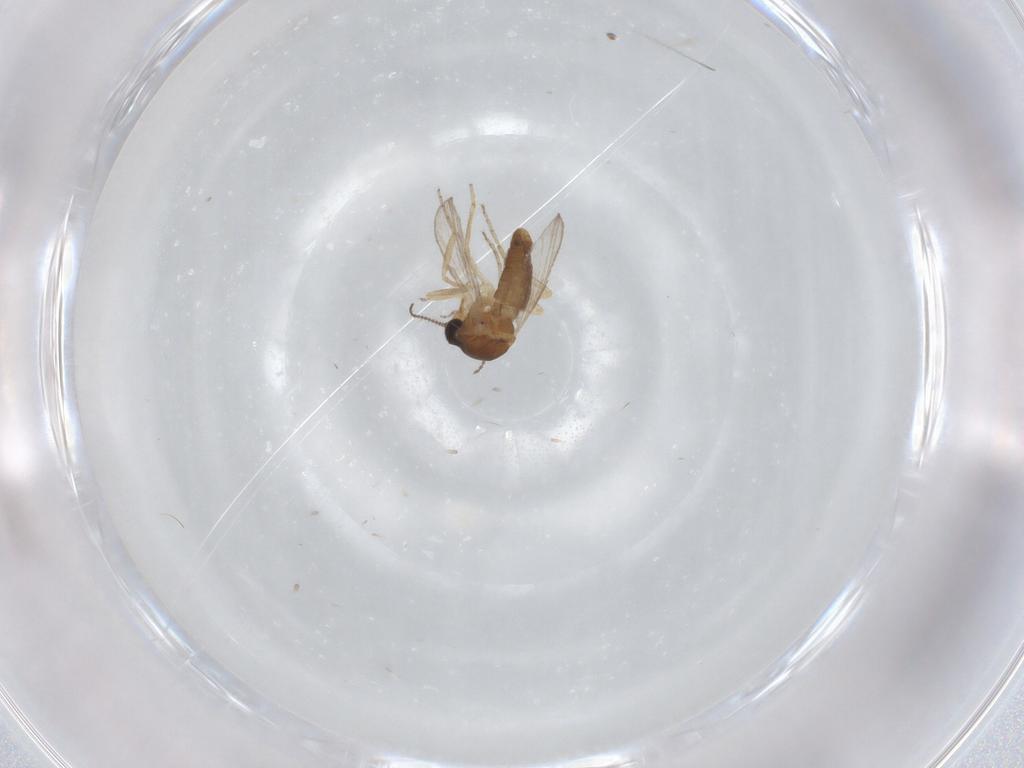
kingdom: Animalia
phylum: Arthropoda
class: Insecta
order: Diptera
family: Ceratopogonidae
